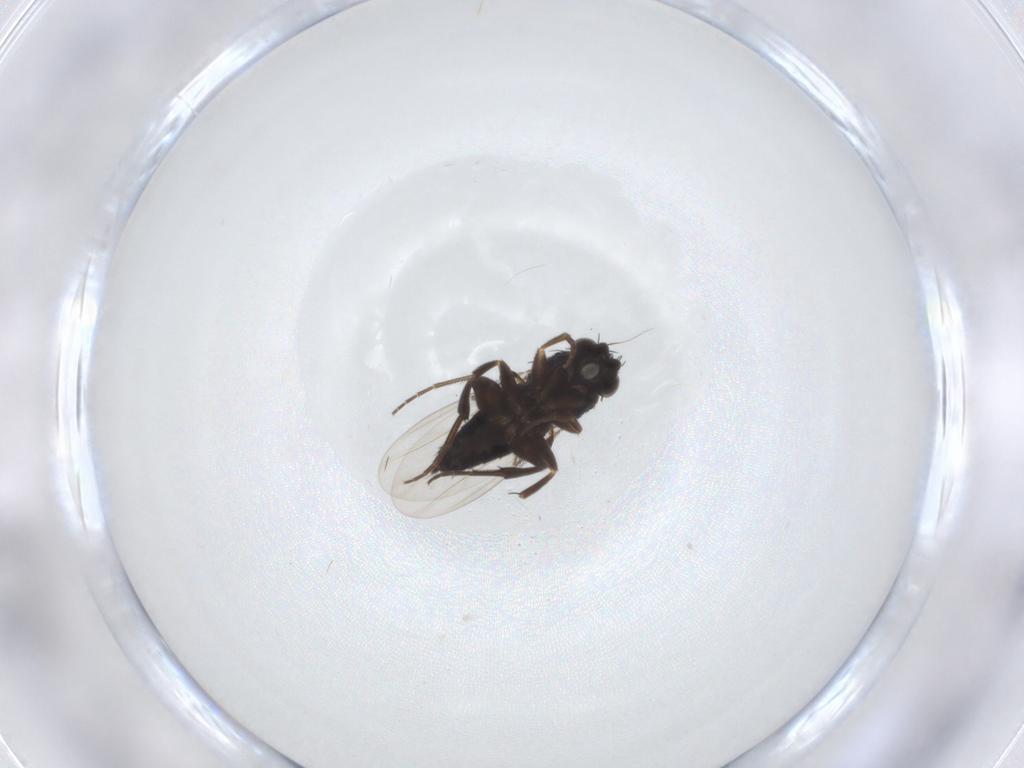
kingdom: Animalia
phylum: Arthropoda
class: Insecta
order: Diptera
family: Phoridae
